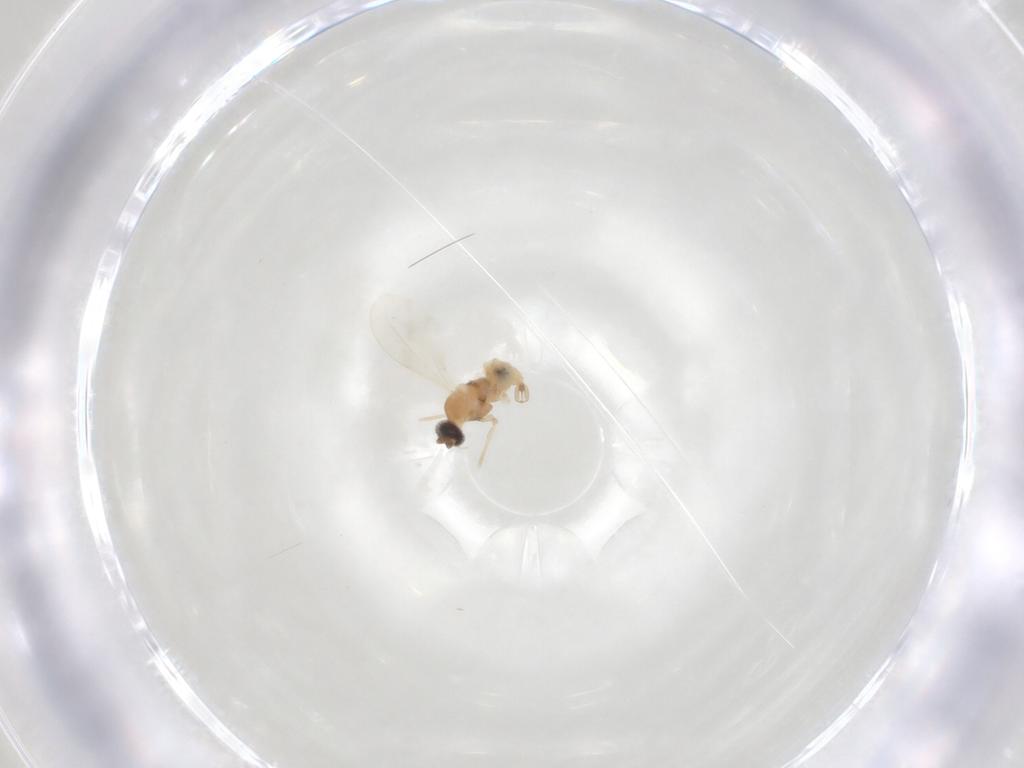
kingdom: Animalia
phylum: Arthropoda
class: Insecta
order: Diptera
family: Cecidomyiidae
